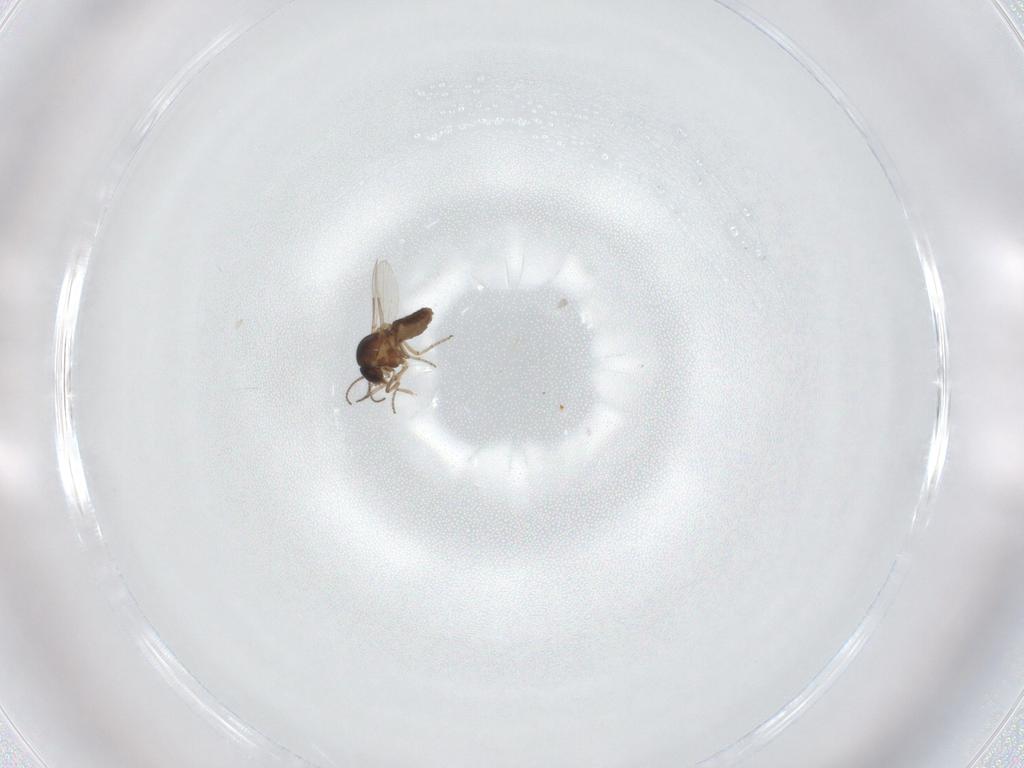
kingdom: Animalia
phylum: Arthropoda
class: Insecta
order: Diptera
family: Ceratopogonidae
